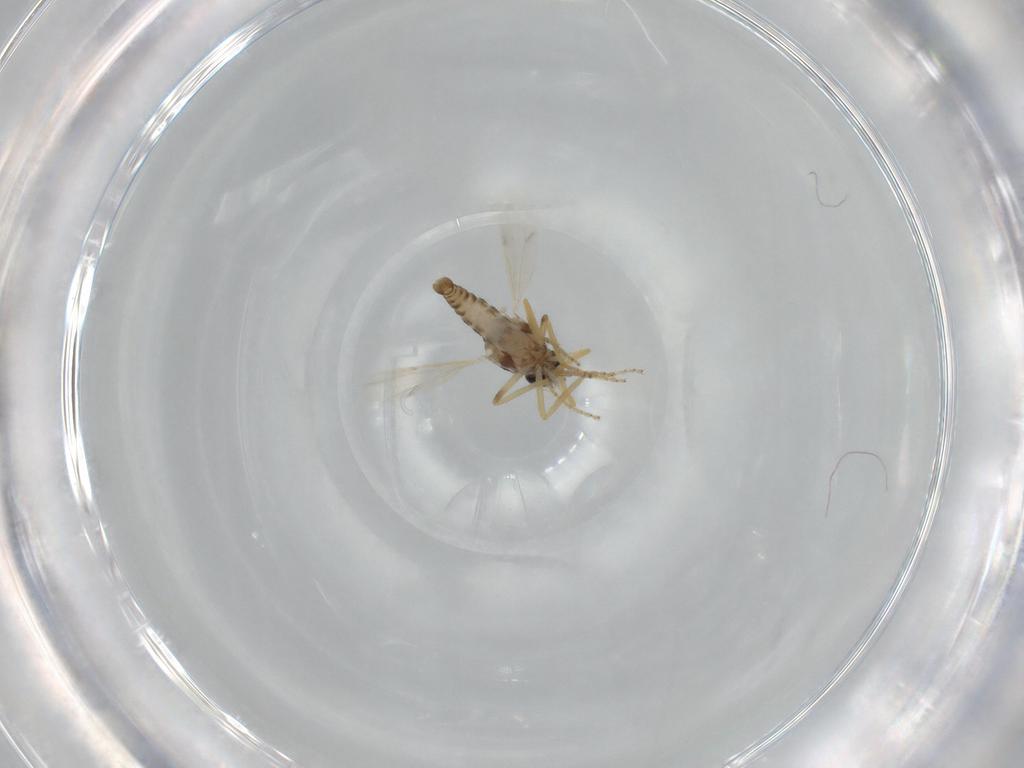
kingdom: Animalia
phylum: Arthropoda
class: Insecta
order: Diptera
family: Ceratopogonidae
